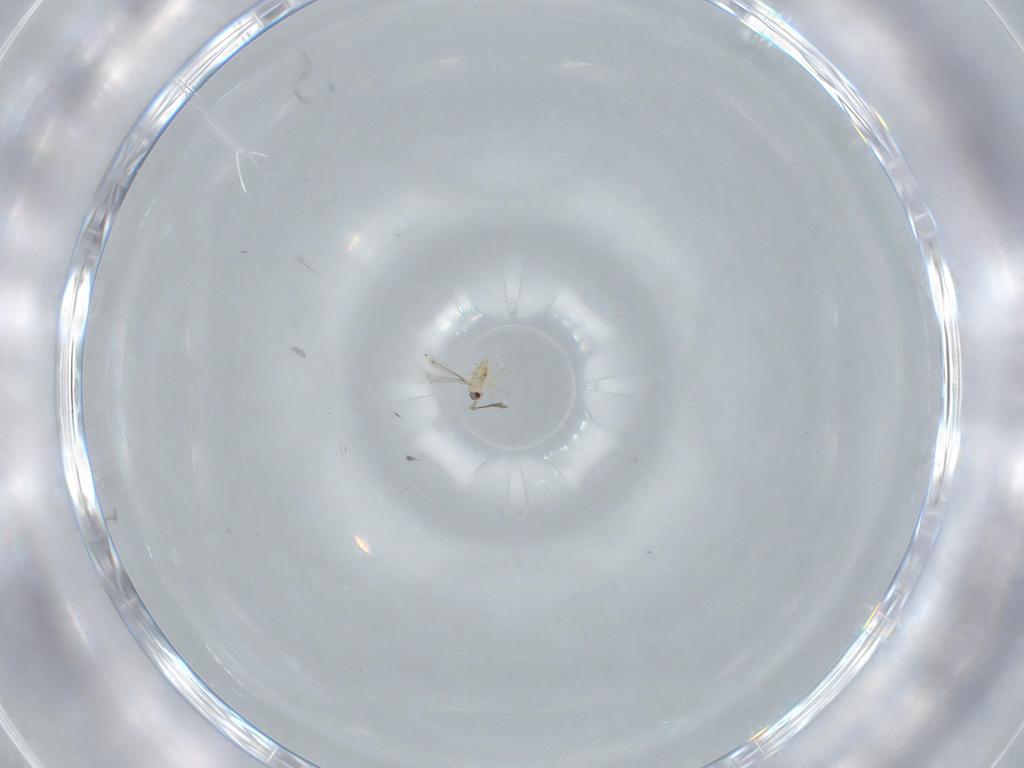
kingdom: Animalia
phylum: Arthropoda
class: Insecta
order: Hymenoptera
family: Mymaridae
